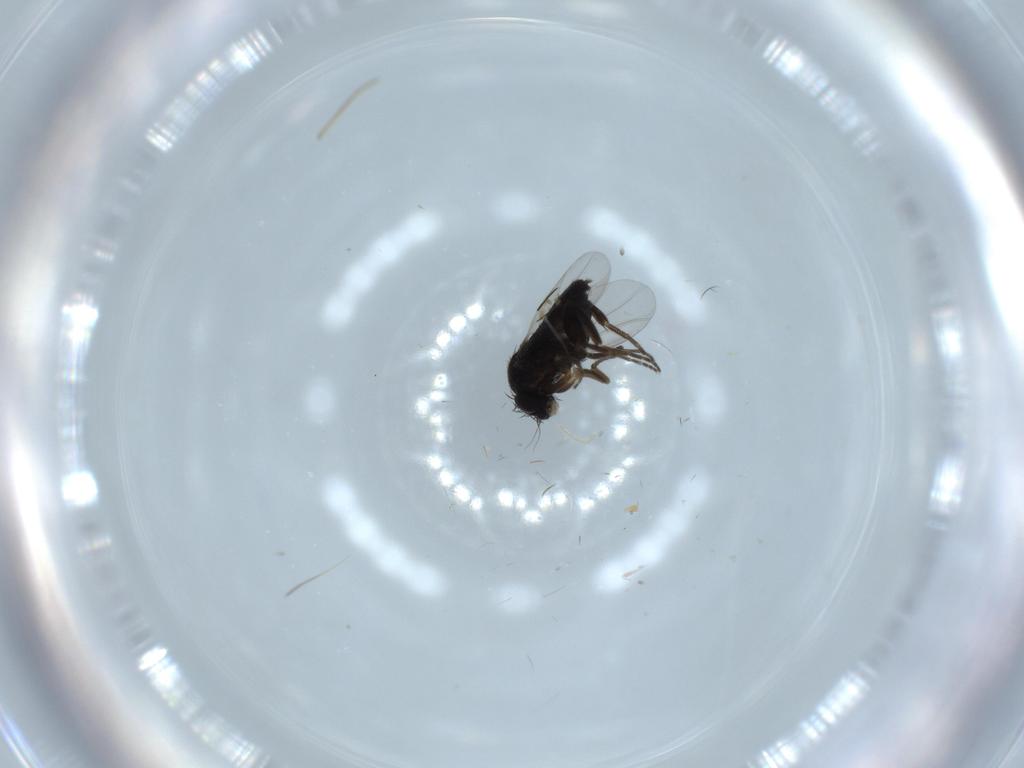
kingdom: Animalia
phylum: Arthropoda
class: Insecta
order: Diptera
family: Phoridae
